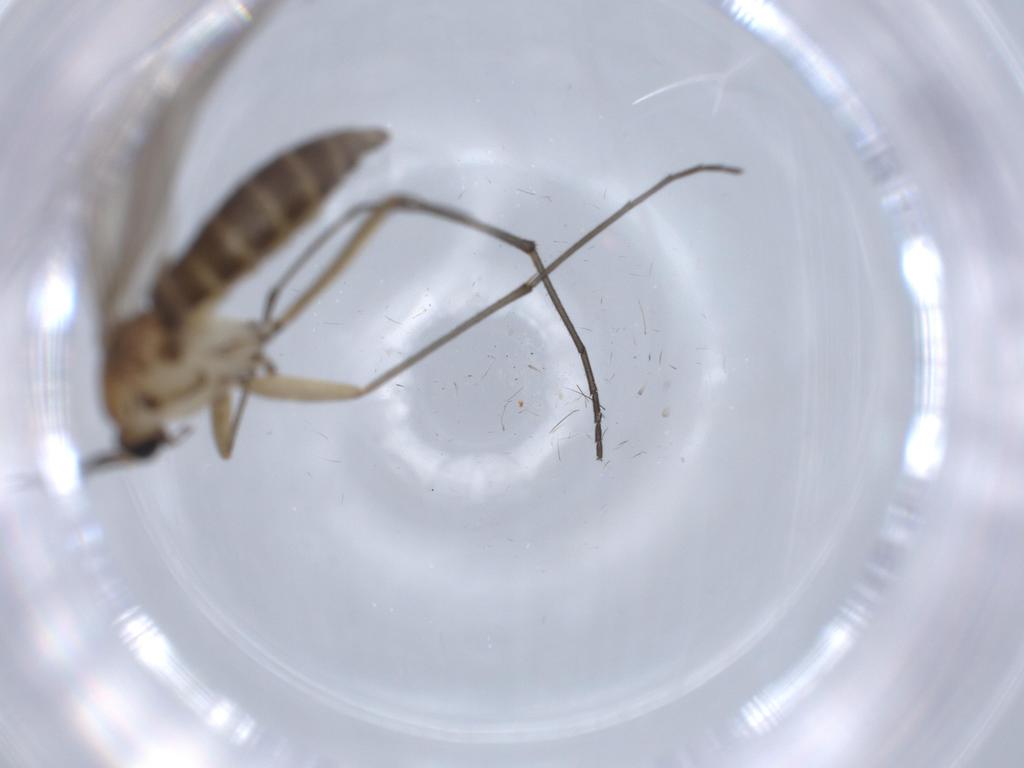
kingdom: Animalia
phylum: Arthropoda
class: Insecta
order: Diptera
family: Sciaridae
